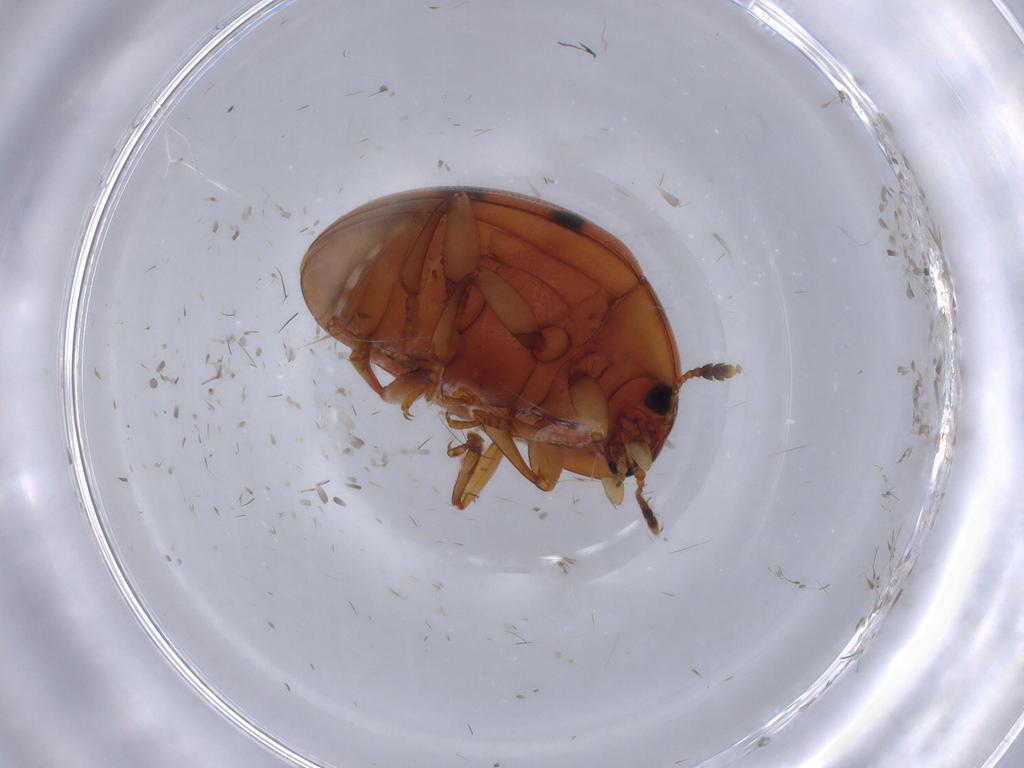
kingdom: Animalia
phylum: Arthropoda
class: Insecta
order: Coleoptera
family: Erotylidae
